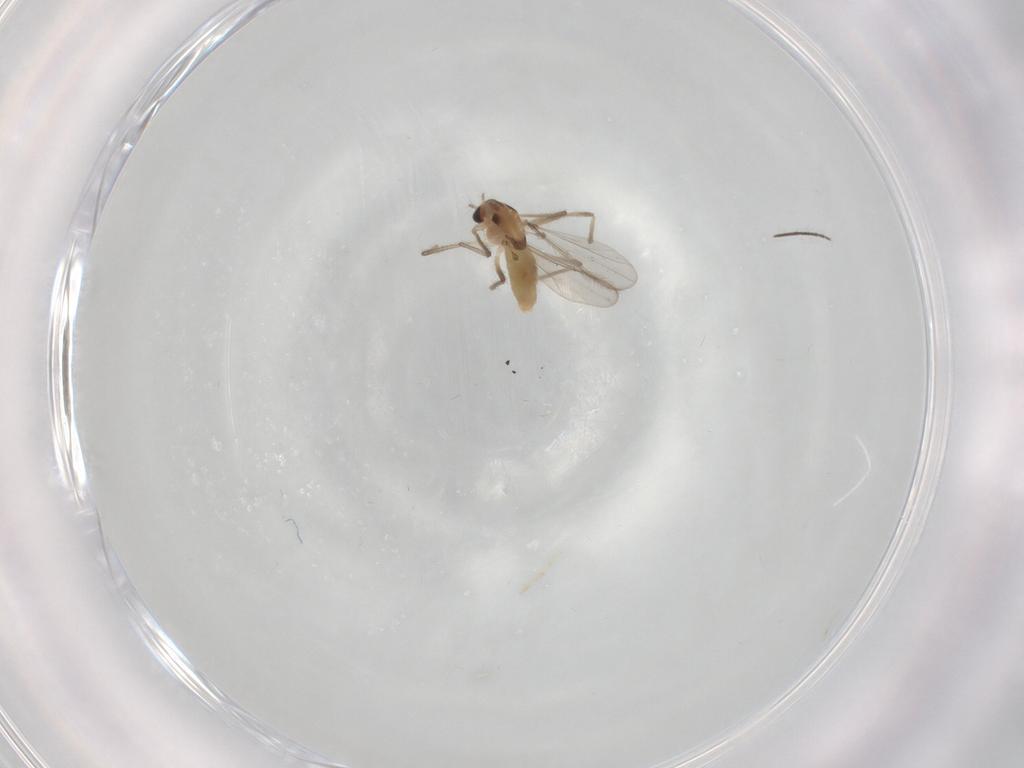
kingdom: Animalia
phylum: Arthropoda
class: Insecta
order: Diptera
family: Chironomidae
